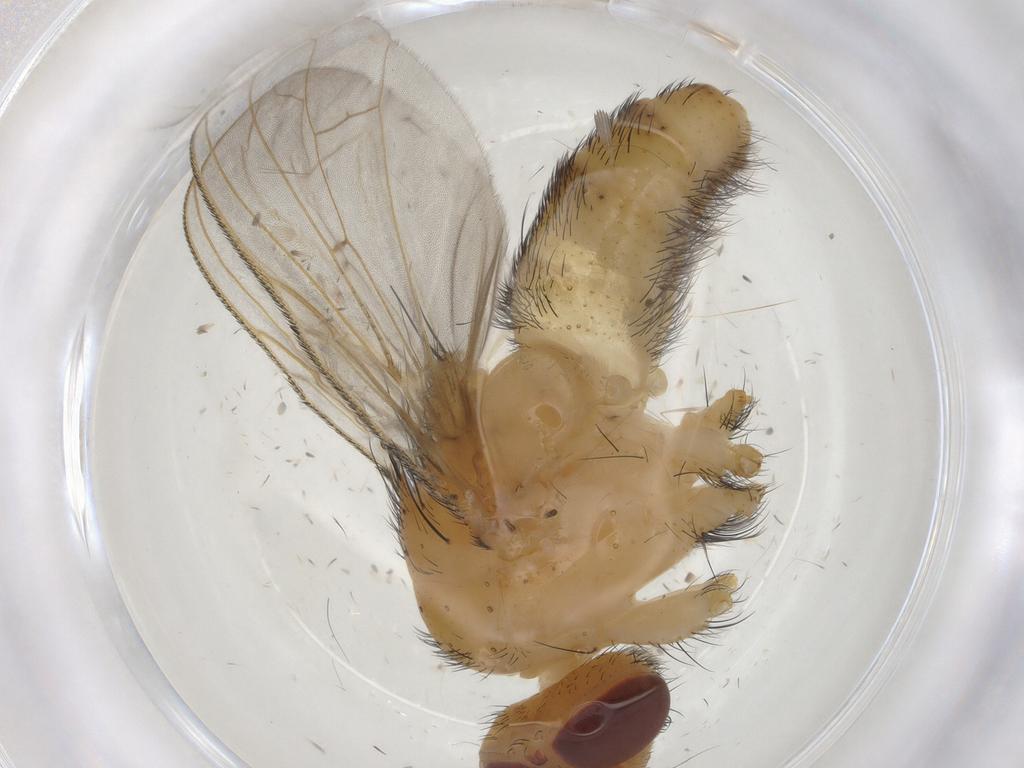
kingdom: Animalia
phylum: Arthropoda
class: Insecta
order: Diptera
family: Tachinidae
